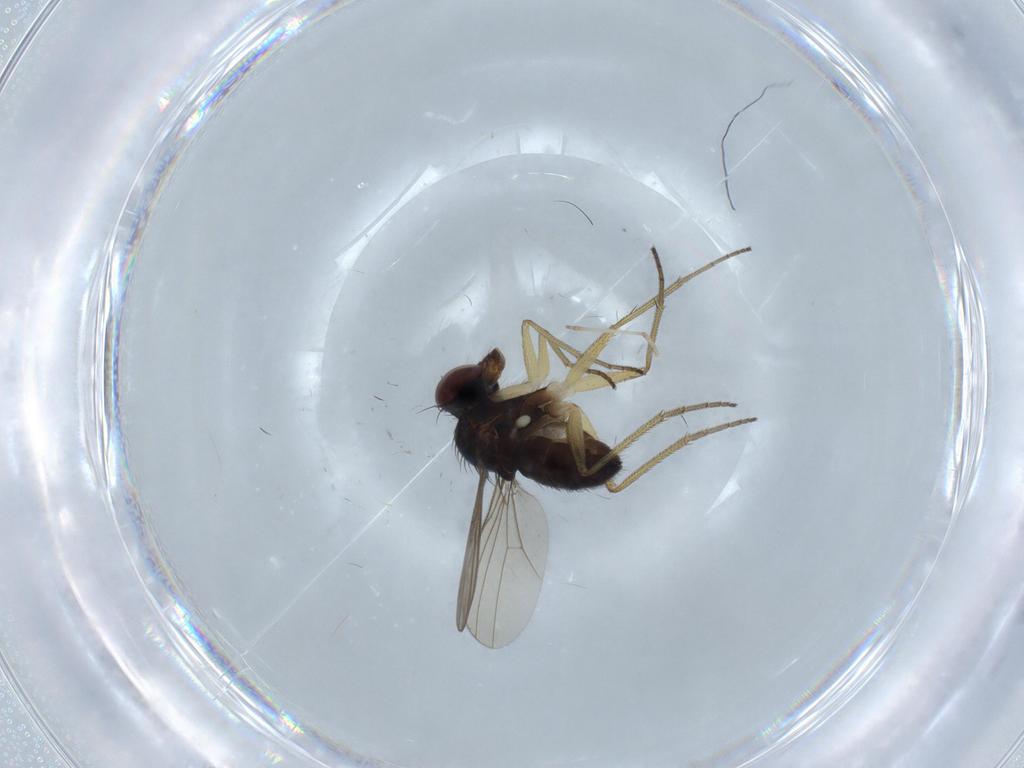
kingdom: Animalia
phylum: Arthropoda
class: Insecta
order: Diptera
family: Dolichopodidae
